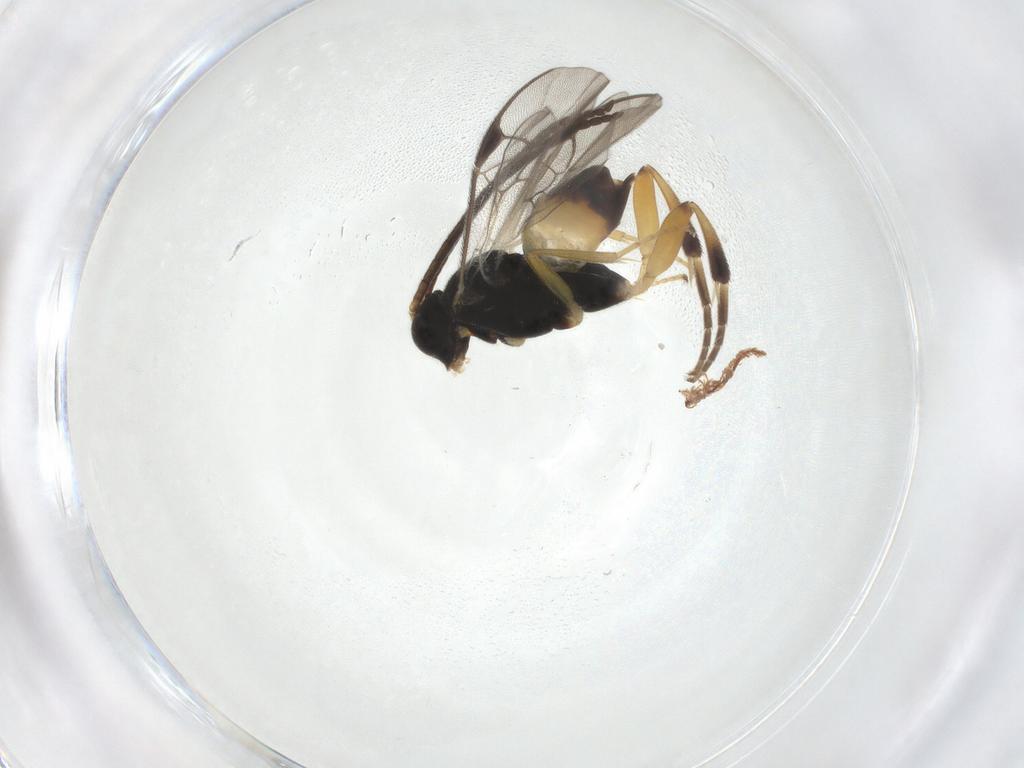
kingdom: Animalia
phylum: Arthropoda
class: Insecta
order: Hymenoptera
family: Braconidae
